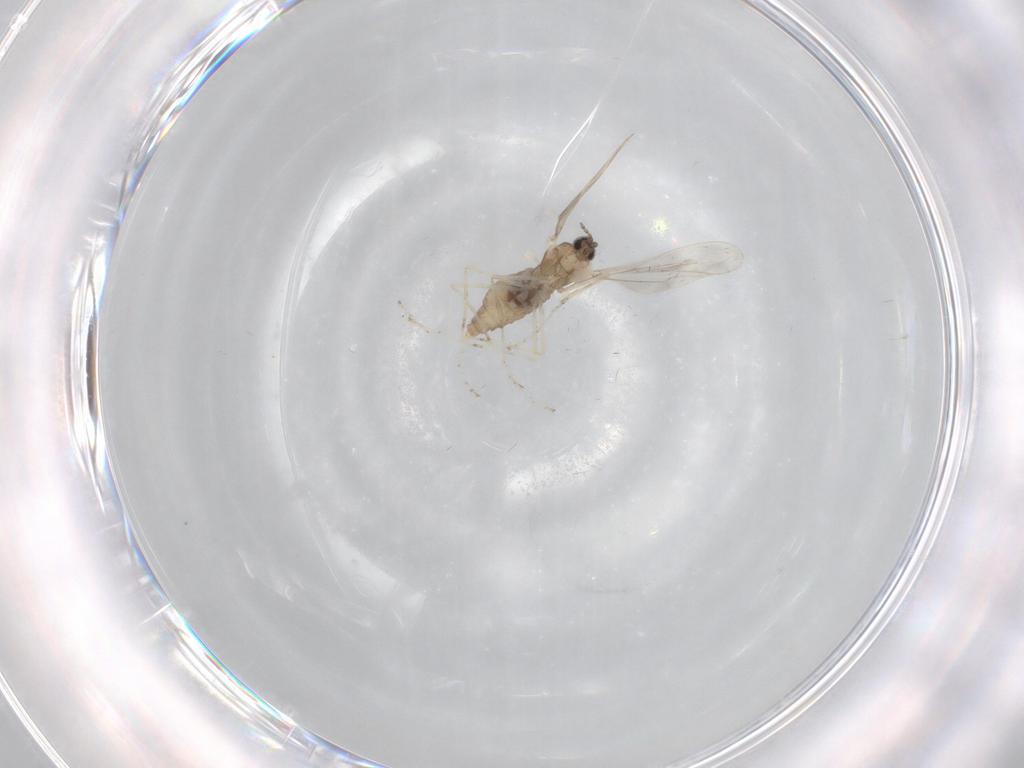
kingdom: Animalia
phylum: Arthropoda
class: Insecta
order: Diptera
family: Cecidomyiidae
